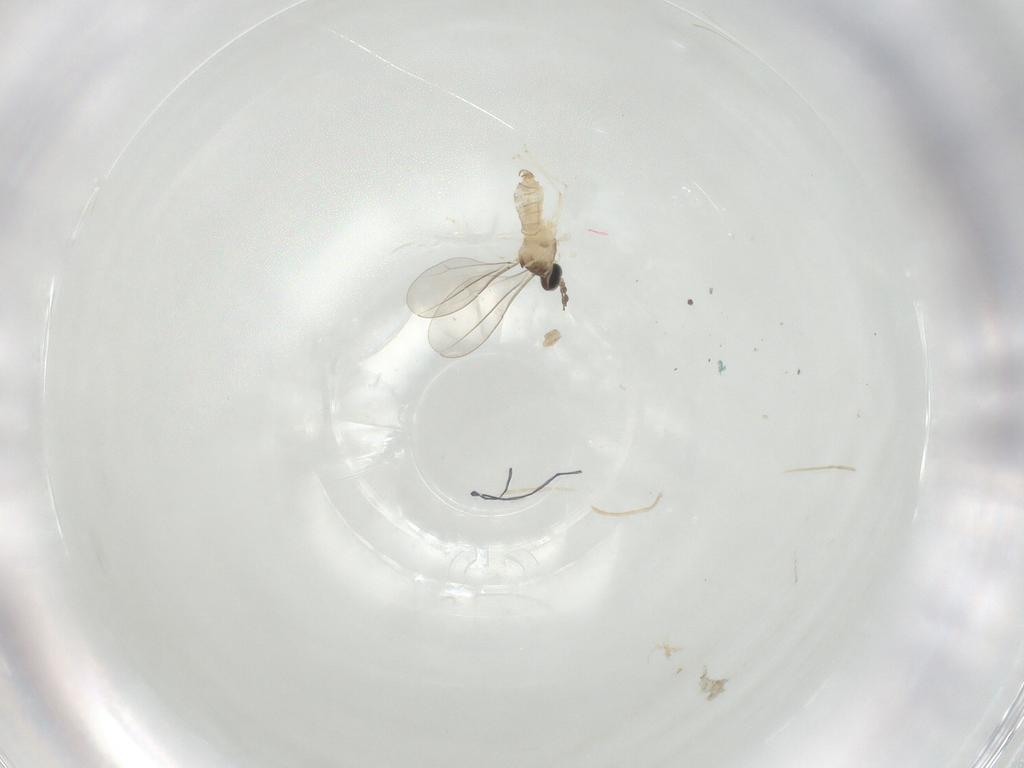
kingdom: Animalia
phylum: Arthropoda
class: Insecta
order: Diptera
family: Cecidomyiidae
